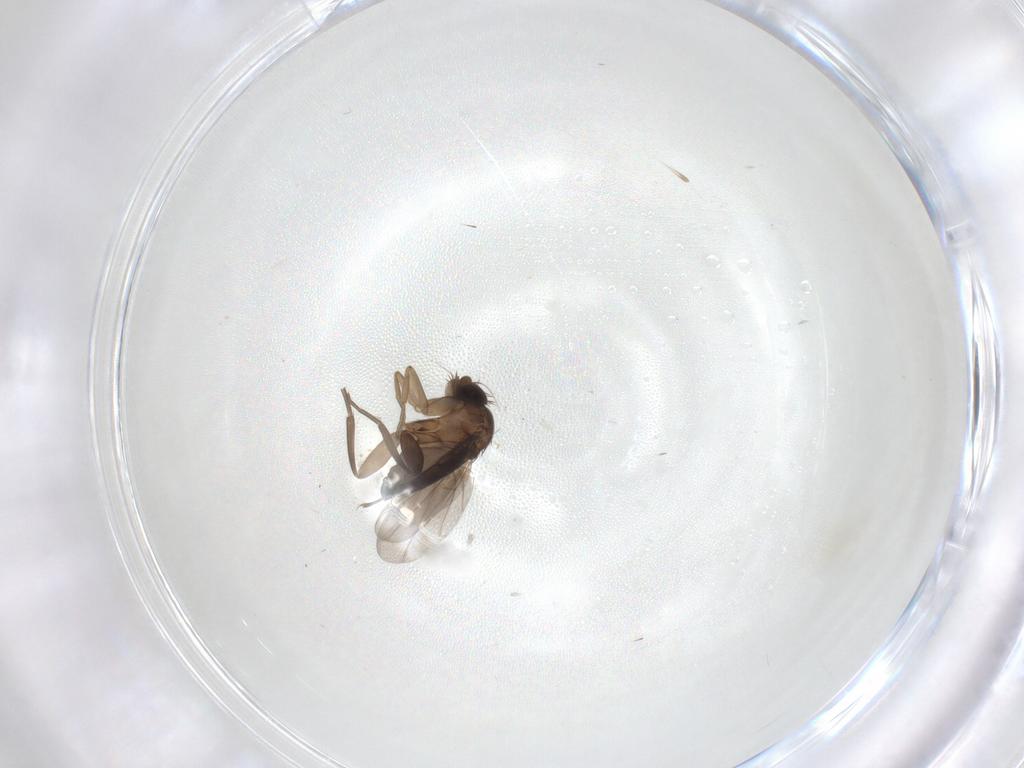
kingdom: Animalia
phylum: Arthropoda
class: Insecta
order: Diptera
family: Phoridae
